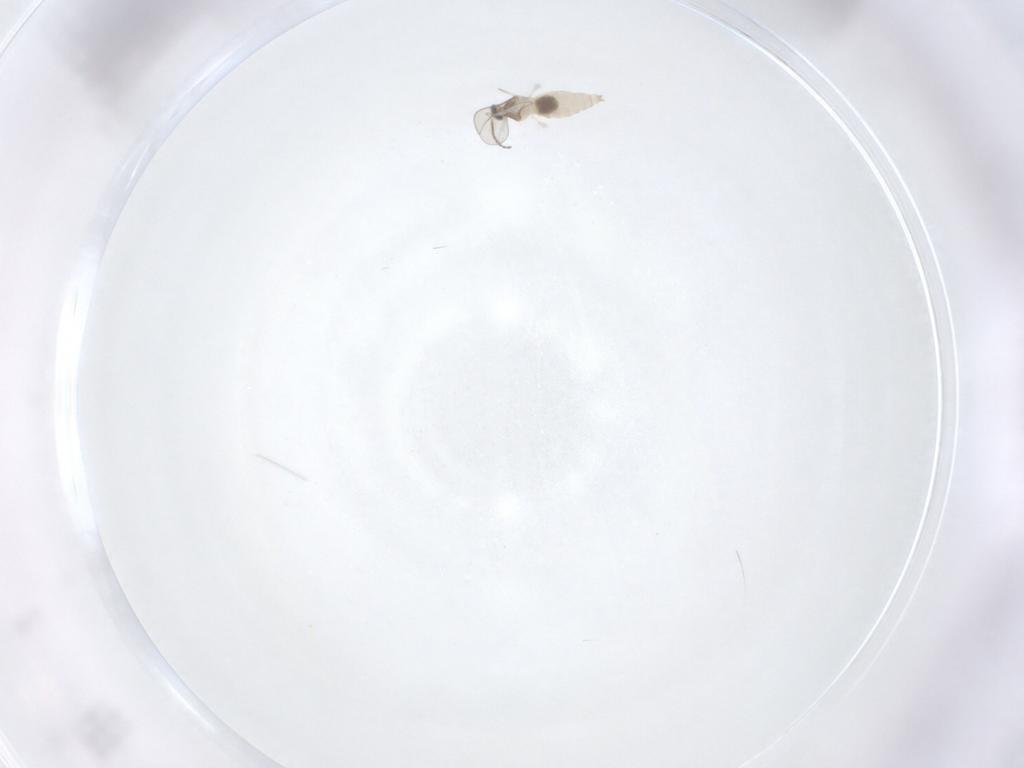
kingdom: Animalia
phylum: Arthropoda
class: Insecta
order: Diptera
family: Cecidomyiidae
